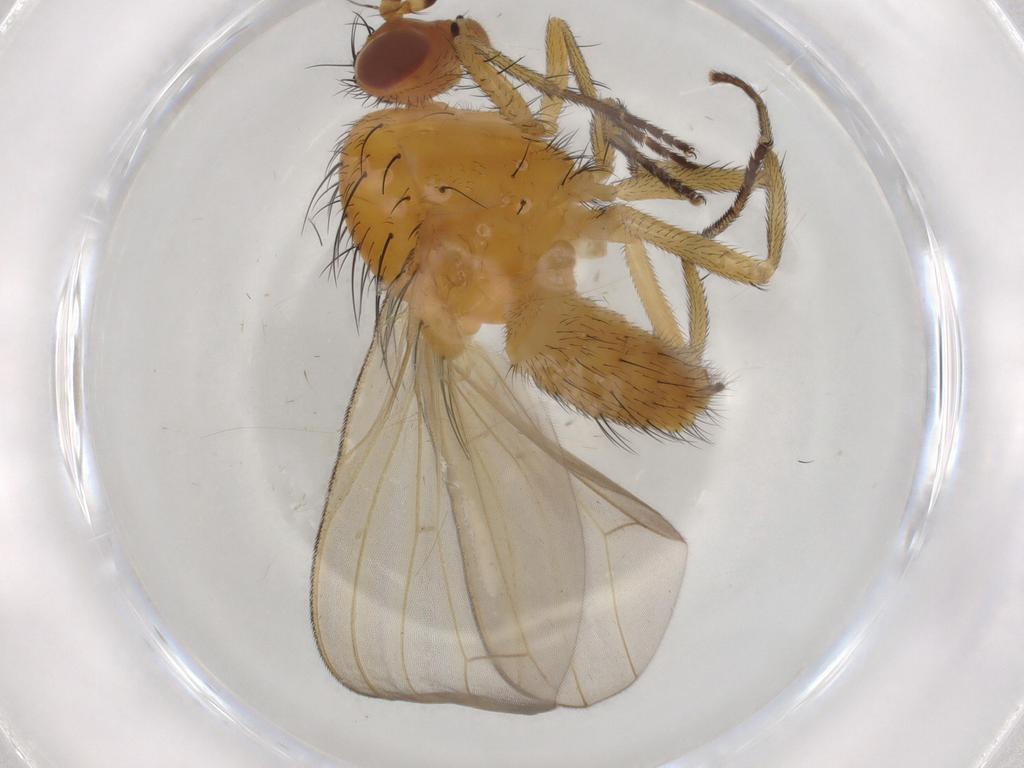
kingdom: Animalia
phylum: Arthropoda
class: Insecta
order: Diptera
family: Lauxaniidae
